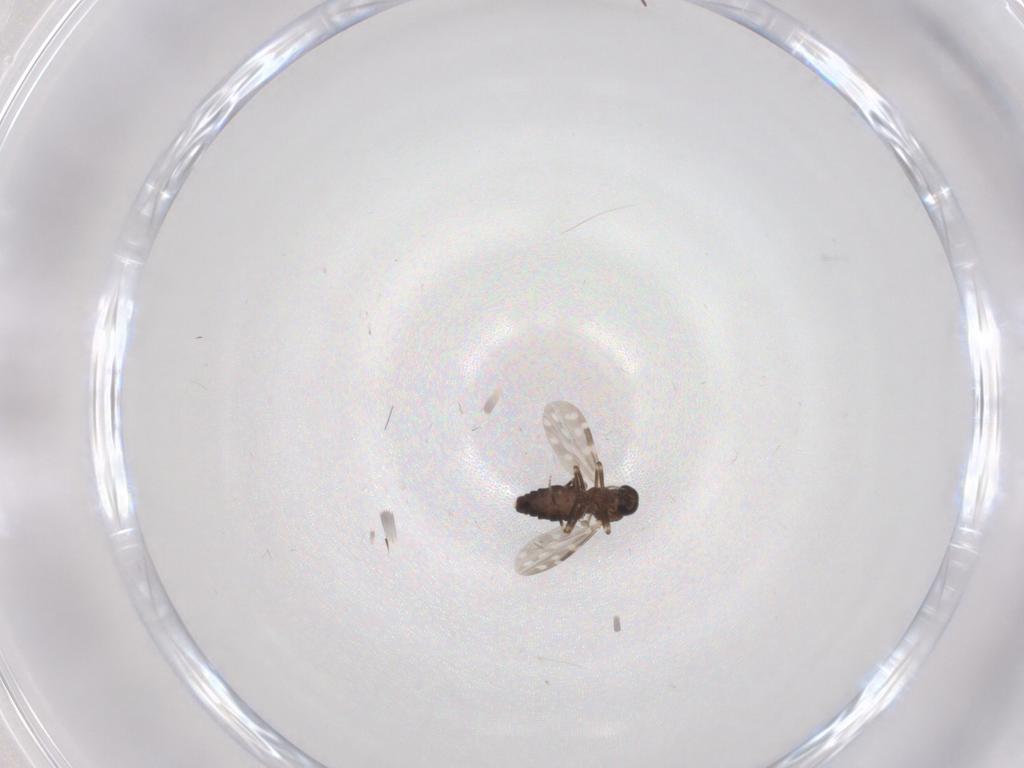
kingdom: Animalia
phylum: Arthropoda
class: Insecta
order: Diptera
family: Ceratopogonidae
